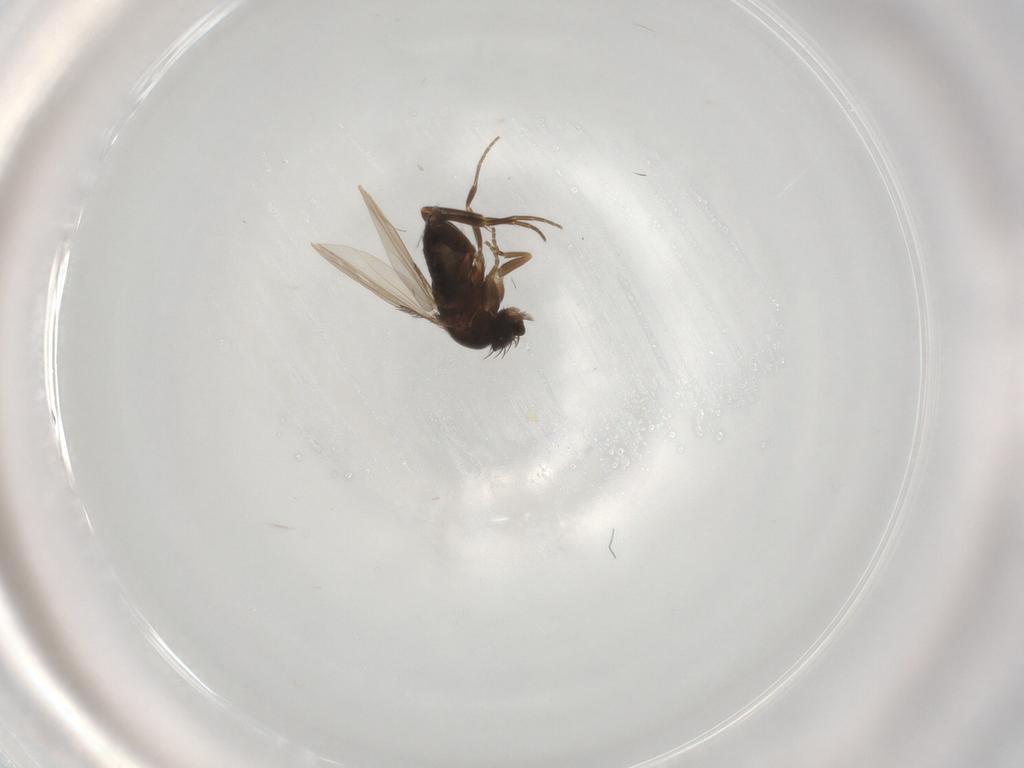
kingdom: Animalia
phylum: Arthropoda
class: Insecta
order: Diptera
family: Phoridae
